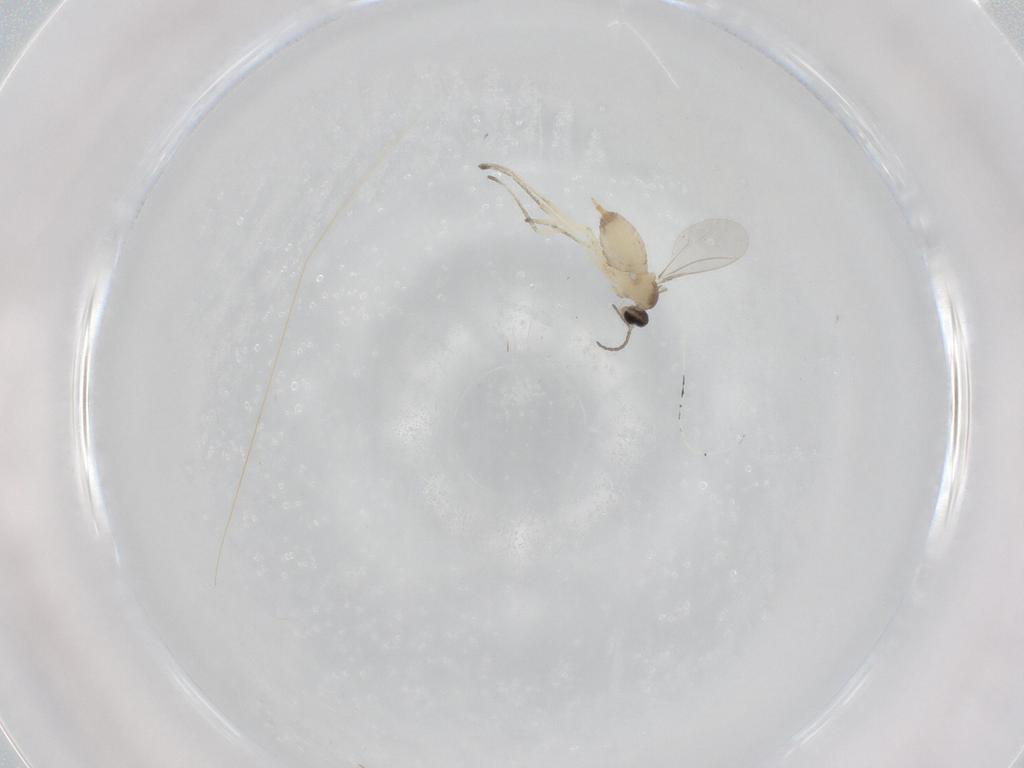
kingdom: Animalia
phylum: Arthropoda
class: Insecta
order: Diptera
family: Cecidomyiidae
